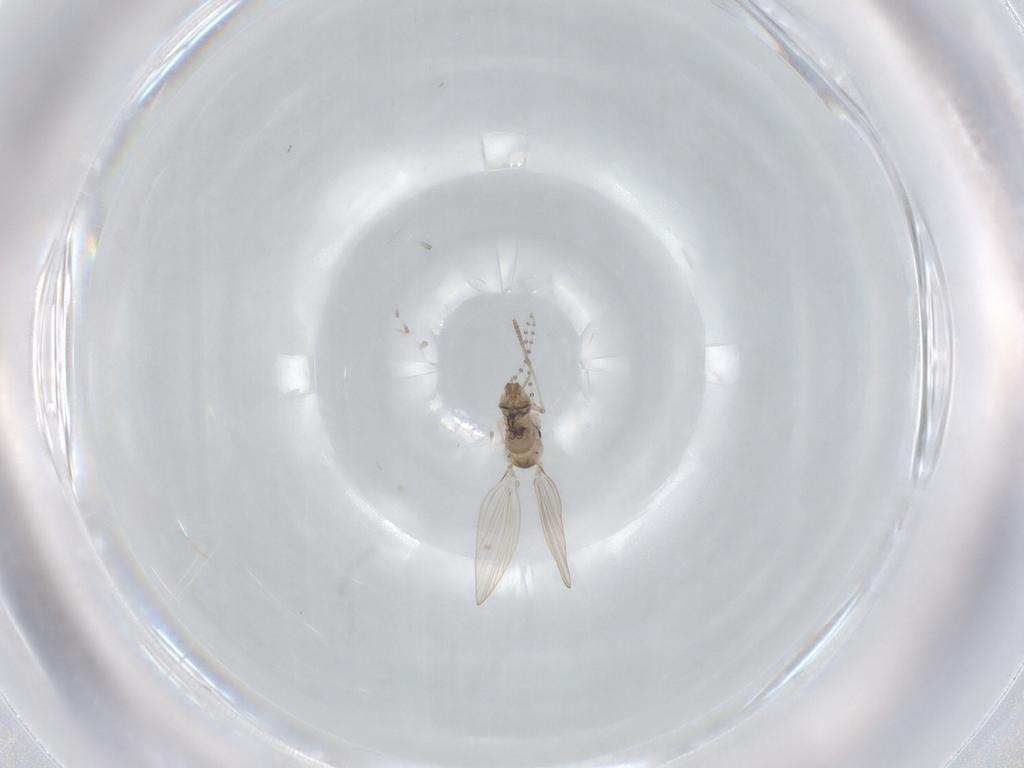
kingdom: Animalia
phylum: Arthropoda
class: Insecta
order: Diptera
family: Psychodidae
